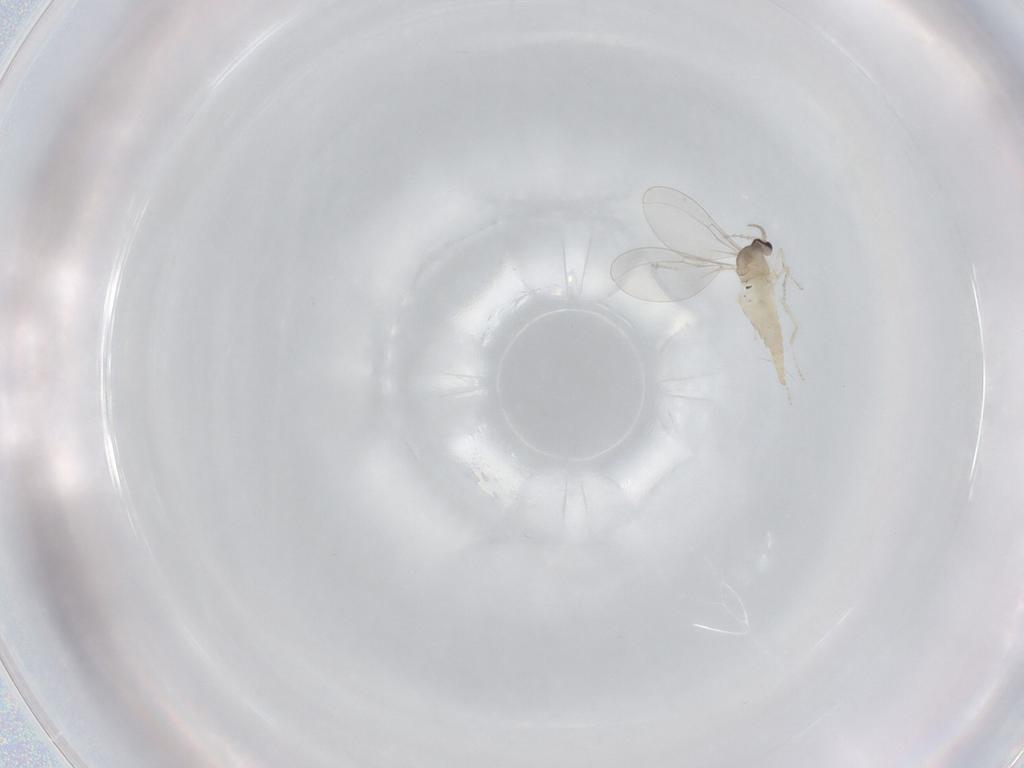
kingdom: Animalia
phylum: Arthropoda
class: Insecta
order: Diptera
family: Cecidomyiidae
